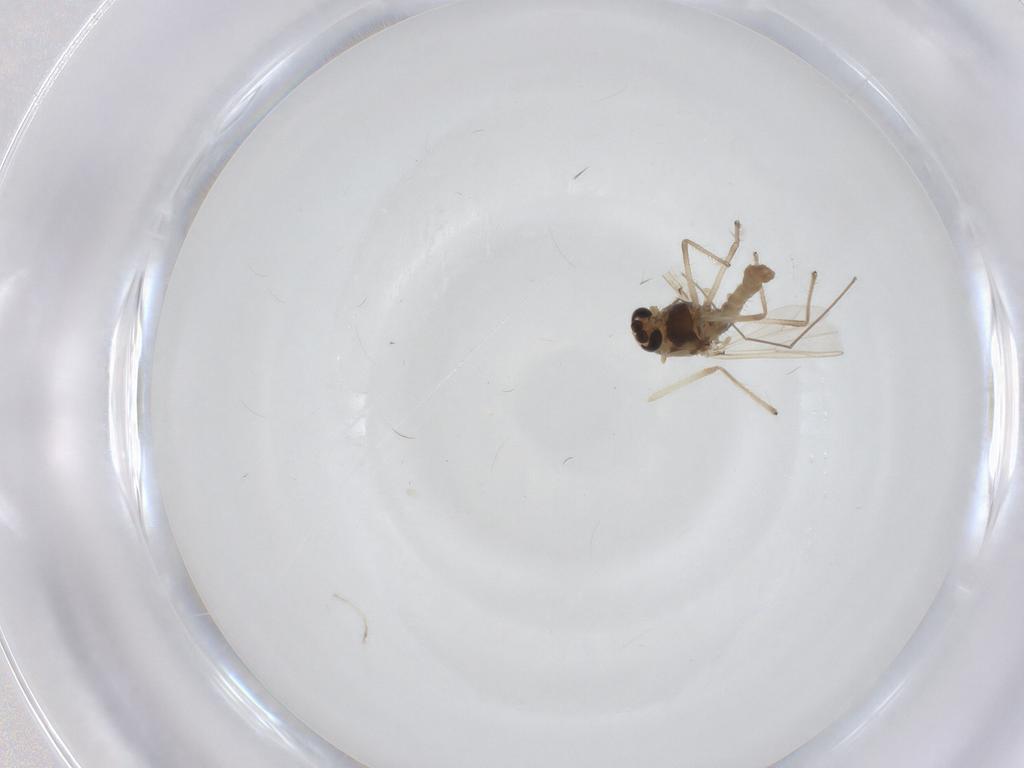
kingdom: Animalia
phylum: Arthropoda
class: Insecta
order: Diptera
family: Chironomidae
